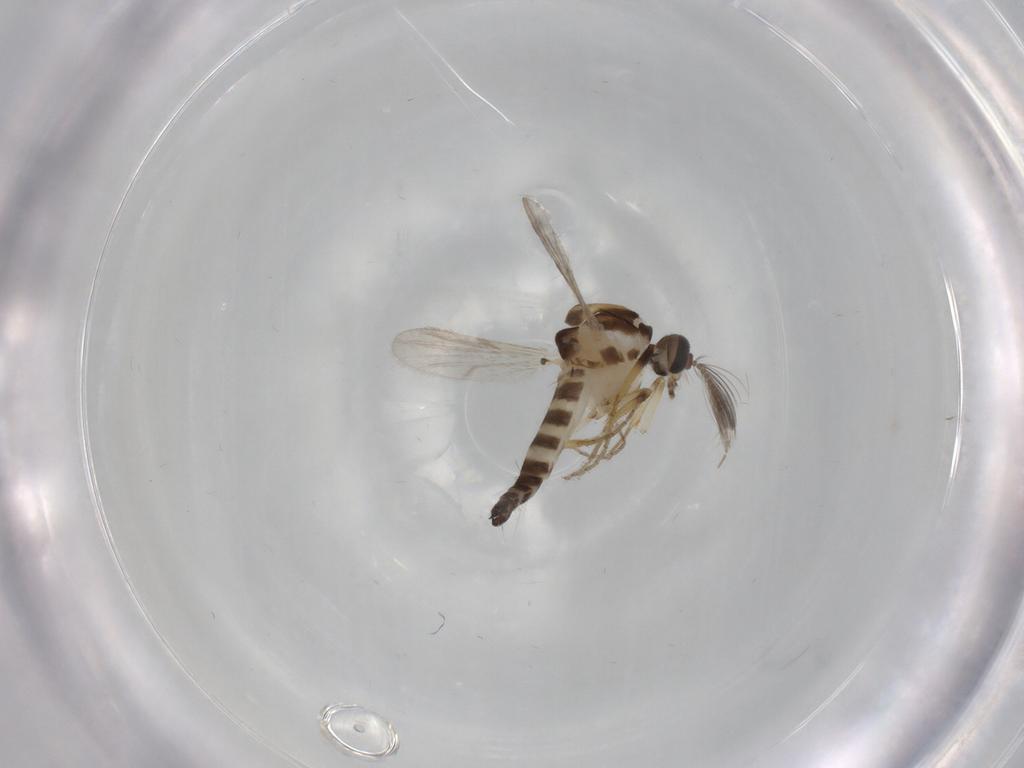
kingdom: Animalia
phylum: Arthropoda
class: Insecta
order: Diptera
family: Ceratopogonidae
